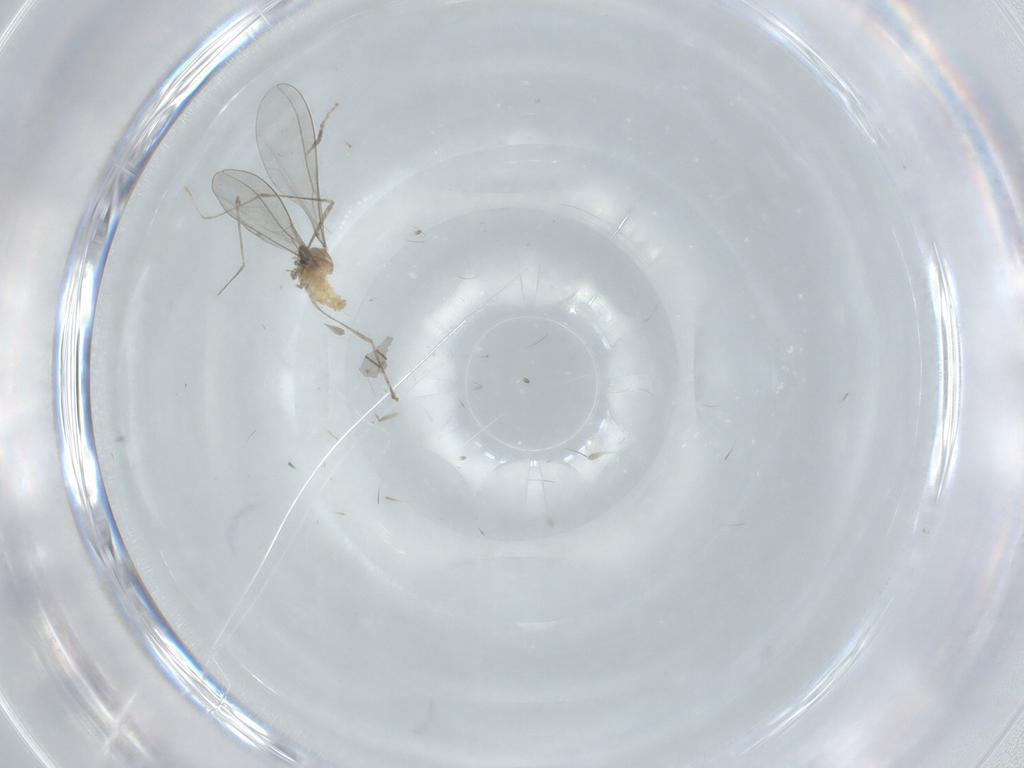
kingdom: Animalia
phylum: Arthropoda
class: Insecta
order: Diptera
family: Cecidomyiidae
